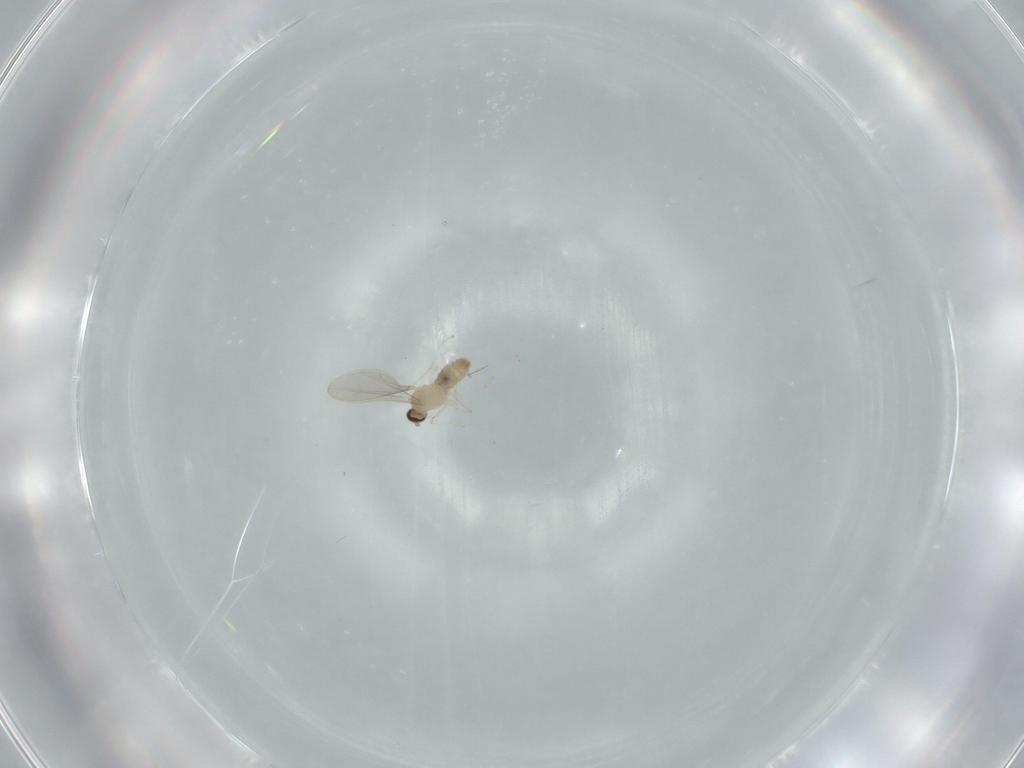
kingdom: Animalia
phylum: Arthropoda
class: Insecta
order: Diptera
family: Cecidomyiidae
